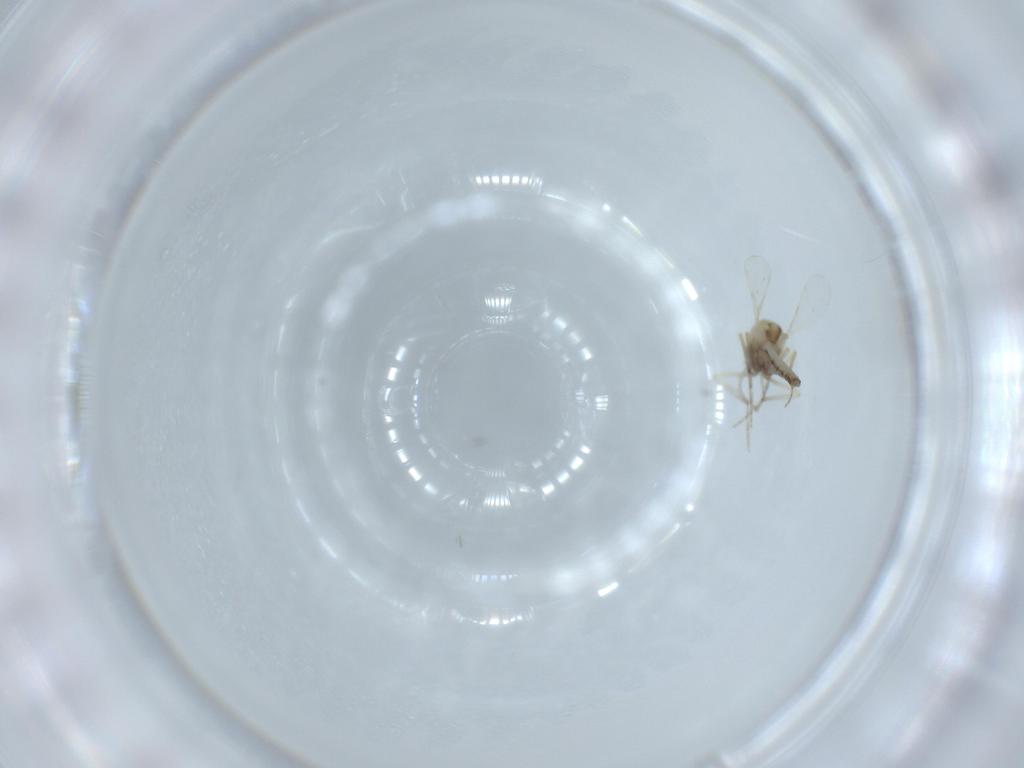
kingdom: Animalia
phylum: Arthropoda
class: Insecta
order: Diptera
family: Ceratopogonidae
